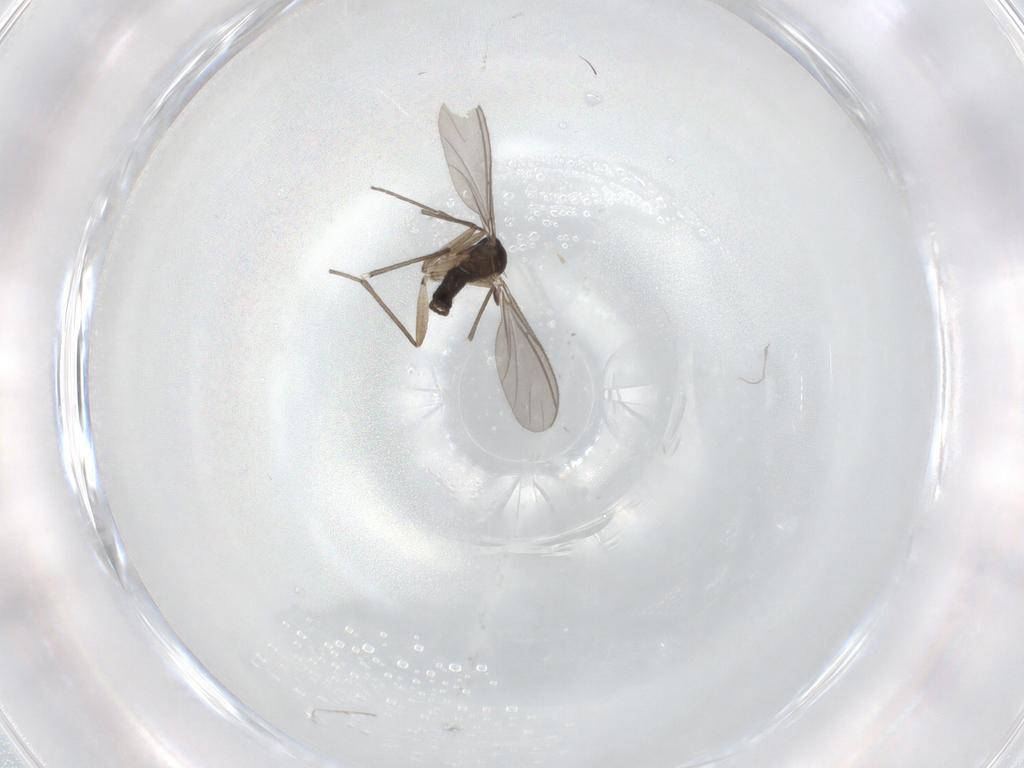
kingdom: Animalia
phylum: Arthropoda
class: Insecta
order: Diptera
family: Sciaridae
